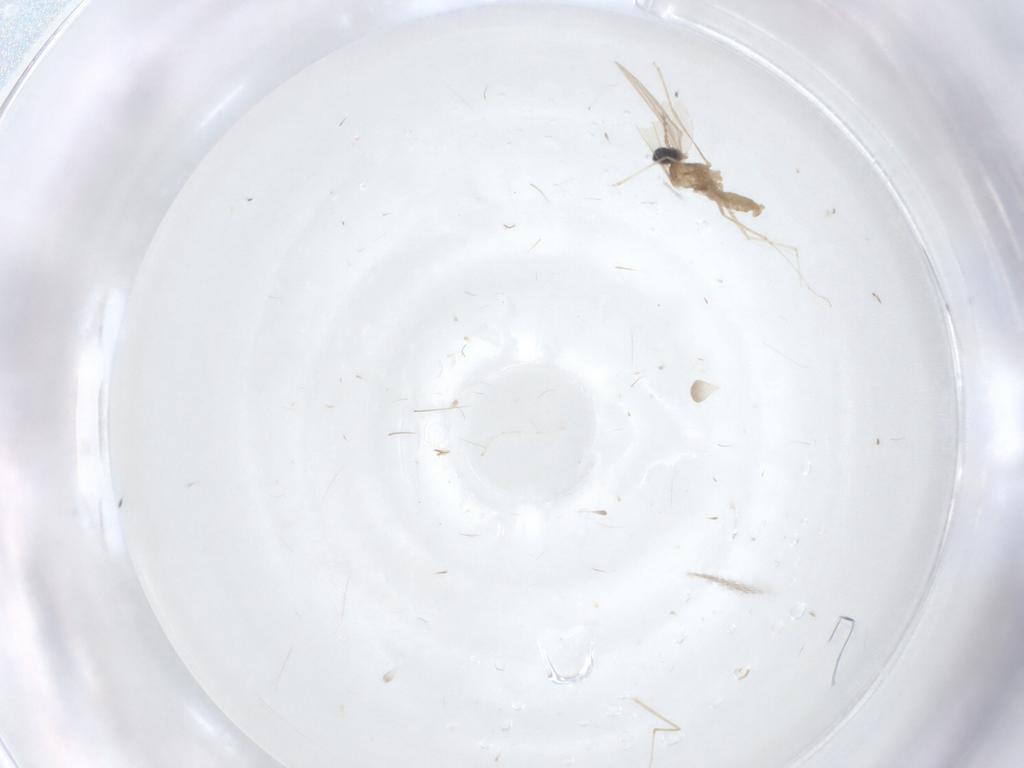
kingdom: Animalia
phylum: Arthropoda
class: Insecta
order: Diptera
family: Cecidomyiidae
